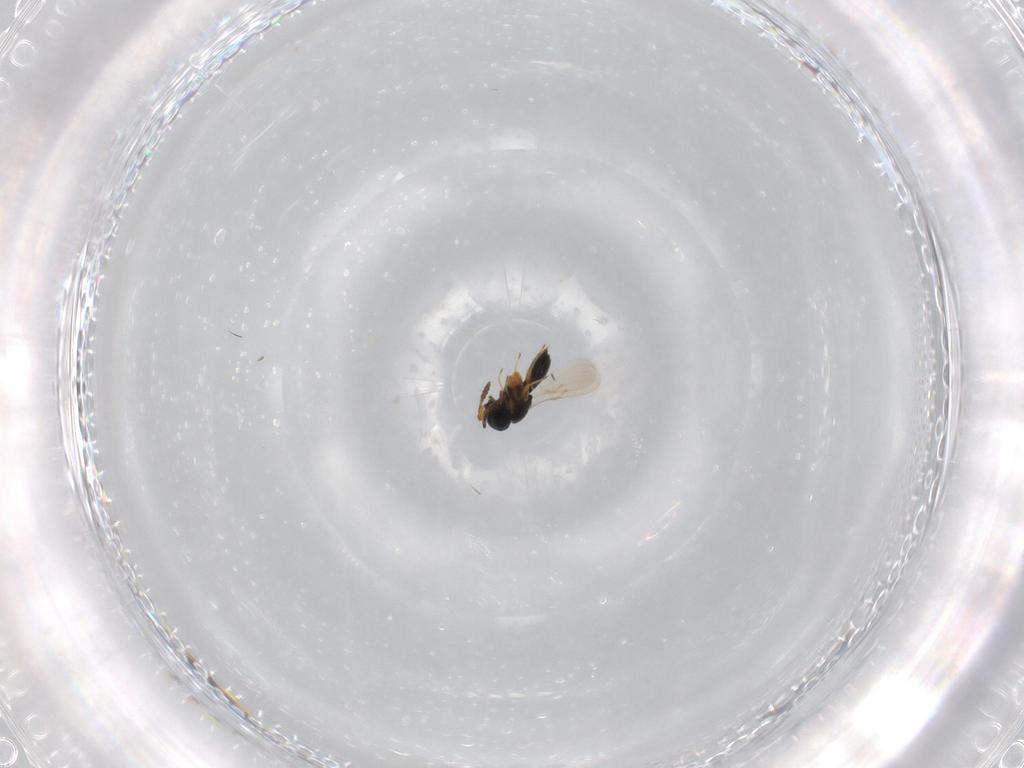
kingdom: Animalia
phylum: Arthropoda
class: Insecta
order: Hymenoptera
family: Scelionidae
